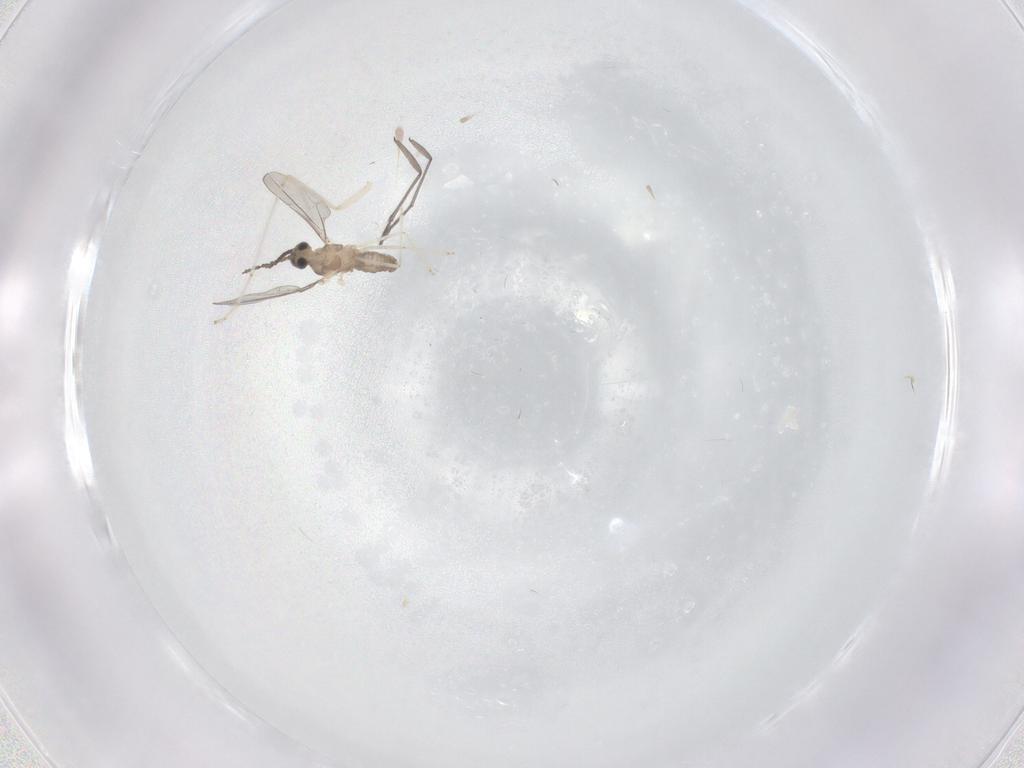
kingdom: Animalia
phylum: Arthropoda
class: Insecta
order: Diptera
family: Cecidomyiidae
